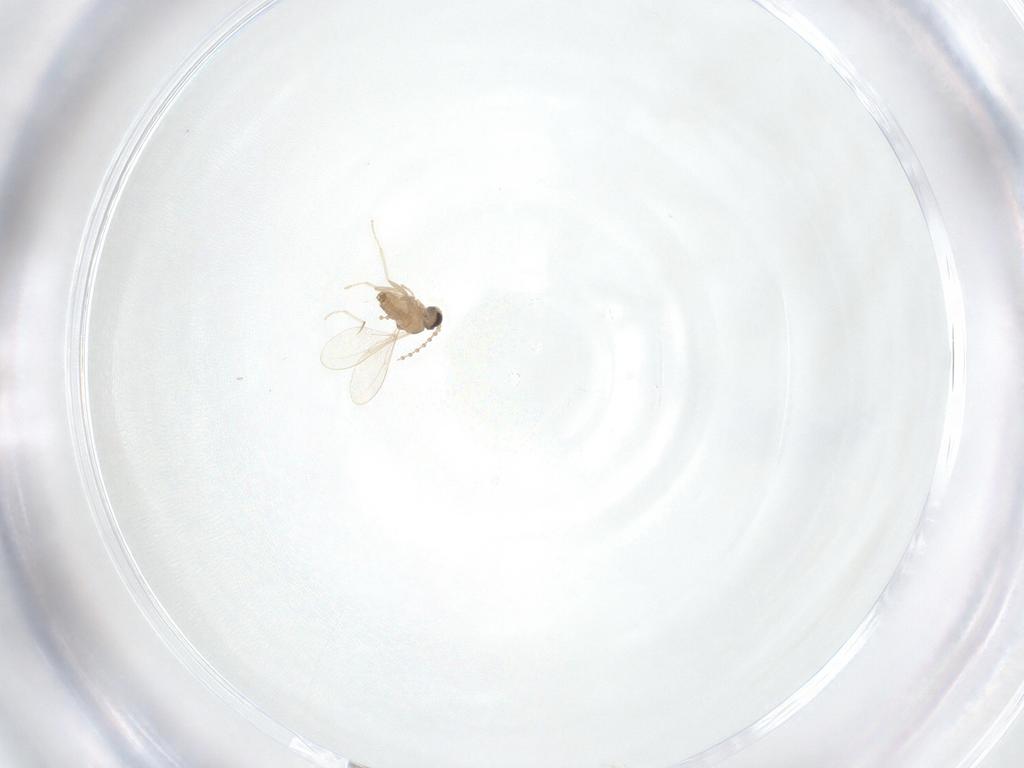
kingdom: Animalia
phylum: Arthropoda
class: Insecta
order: Diptera
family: Cecidomyiidae
